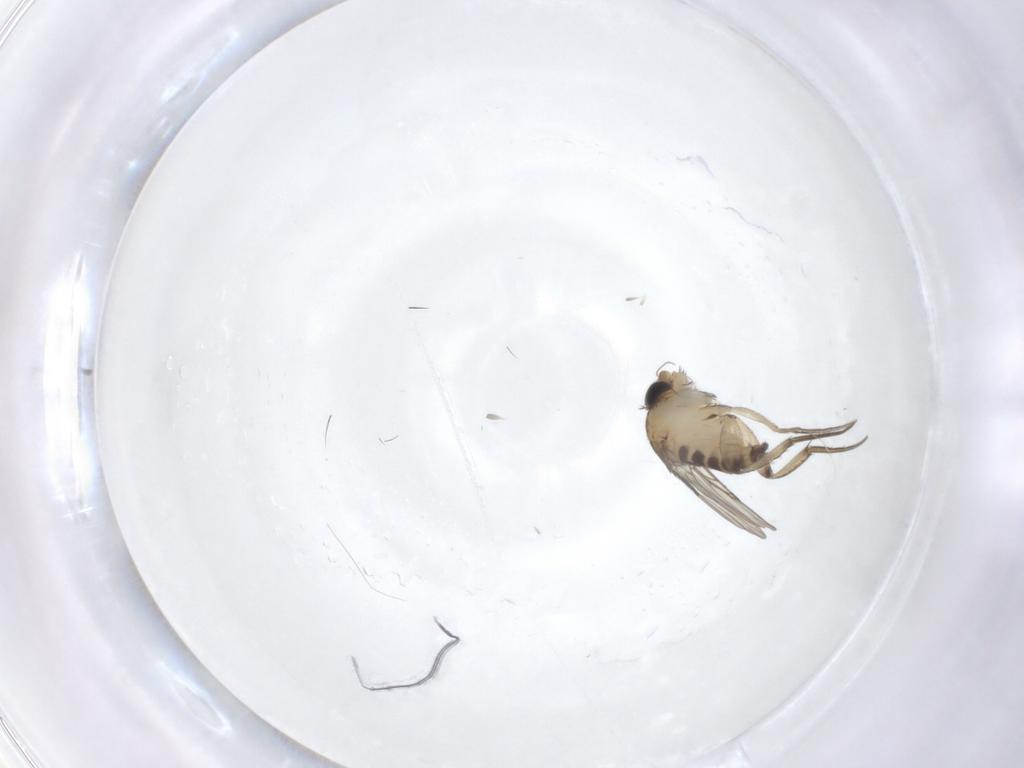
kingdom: Animalia
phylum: Arthropoda
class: Insecta
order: Diptera
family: Phoridae
